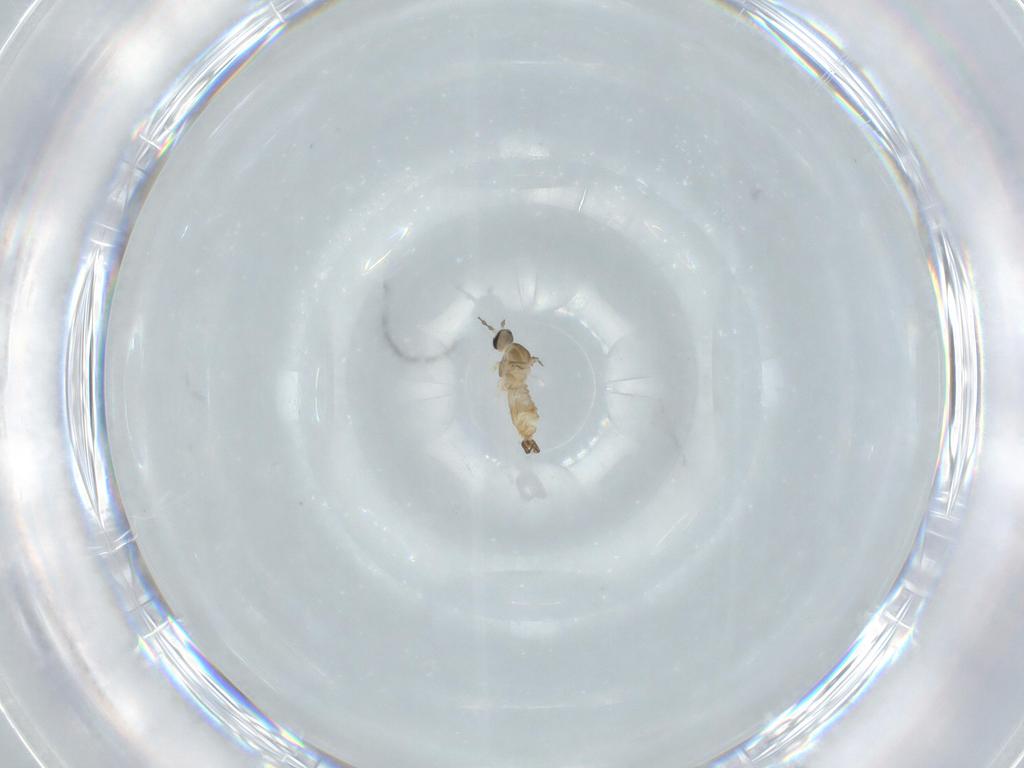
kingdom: Animalia
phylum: Arthropoda
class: Insecta
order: Diptera
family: Cecidomyiidae
